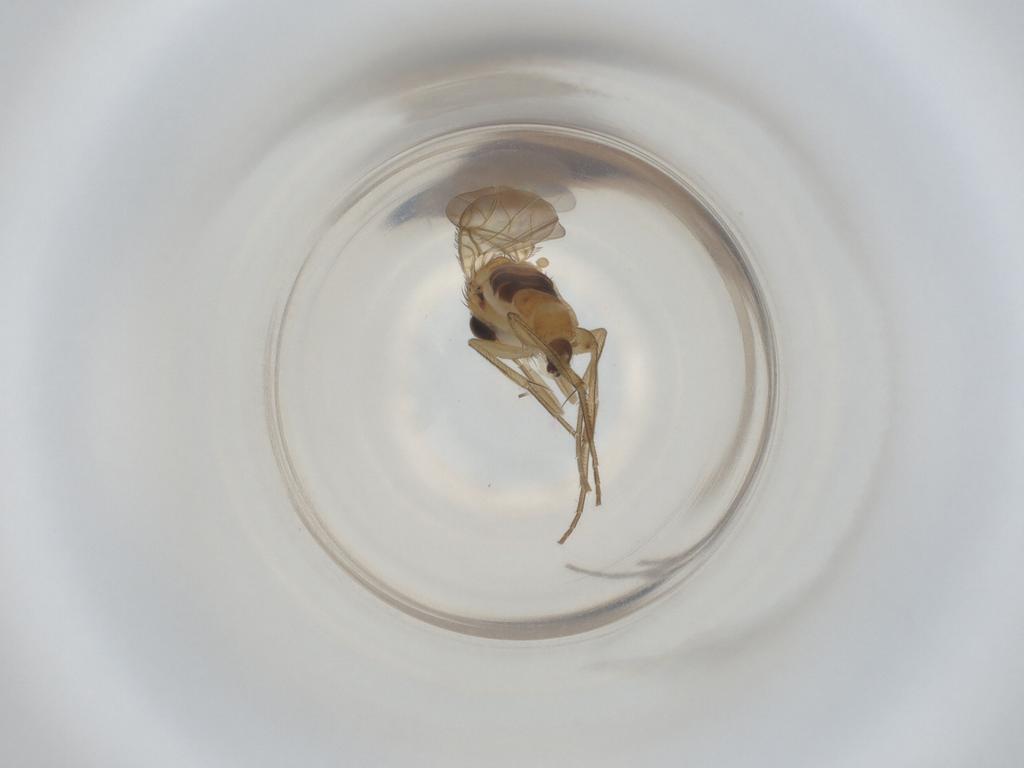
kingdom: Animalia
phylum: Arthropoda
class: Insecta
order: Diptera
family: Phoridae
